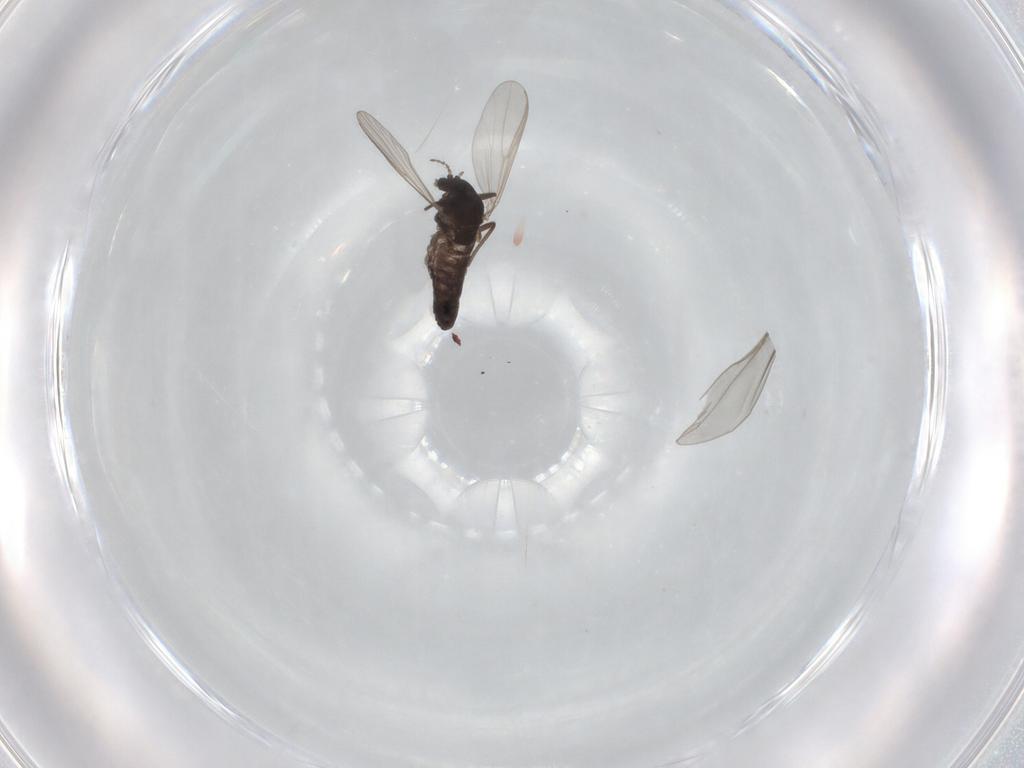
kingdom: Animalia
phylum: Arthropoda
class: Insecta
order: Diptera
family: Chironomidae
